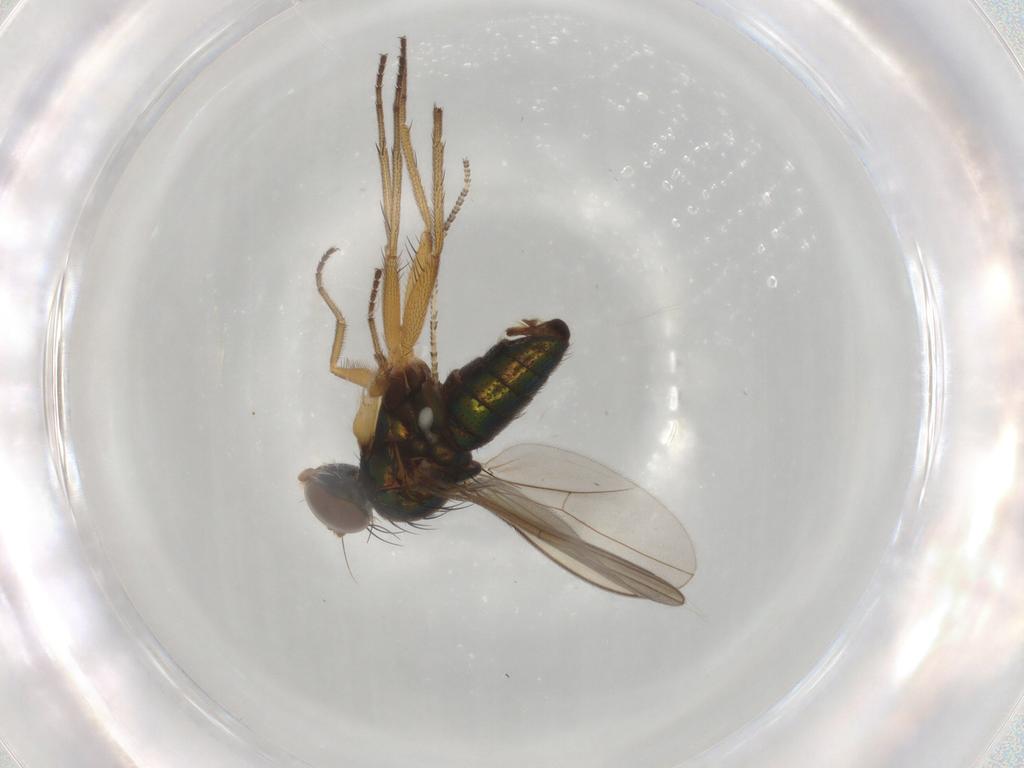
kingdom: Animalia
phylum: Arthropoda
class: Insecta
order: Diptera
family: Dolichopodidae
